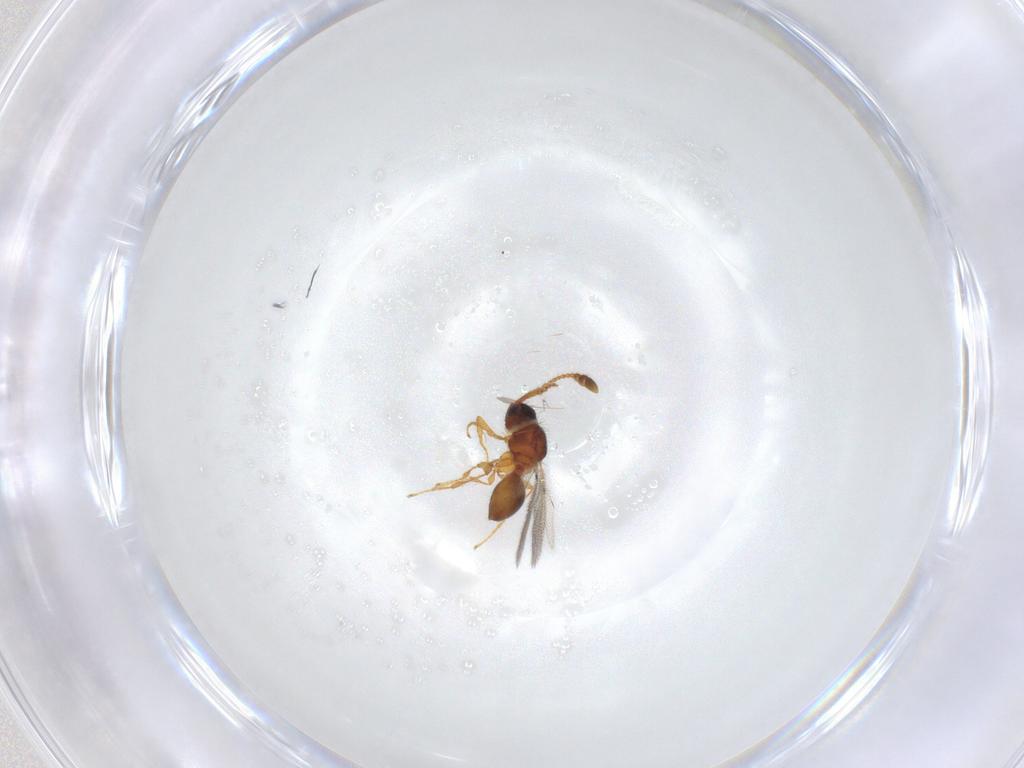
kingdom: Animalia
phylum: Arthropoda
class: Insecta
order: Hymenoptera
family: Diapriidae
